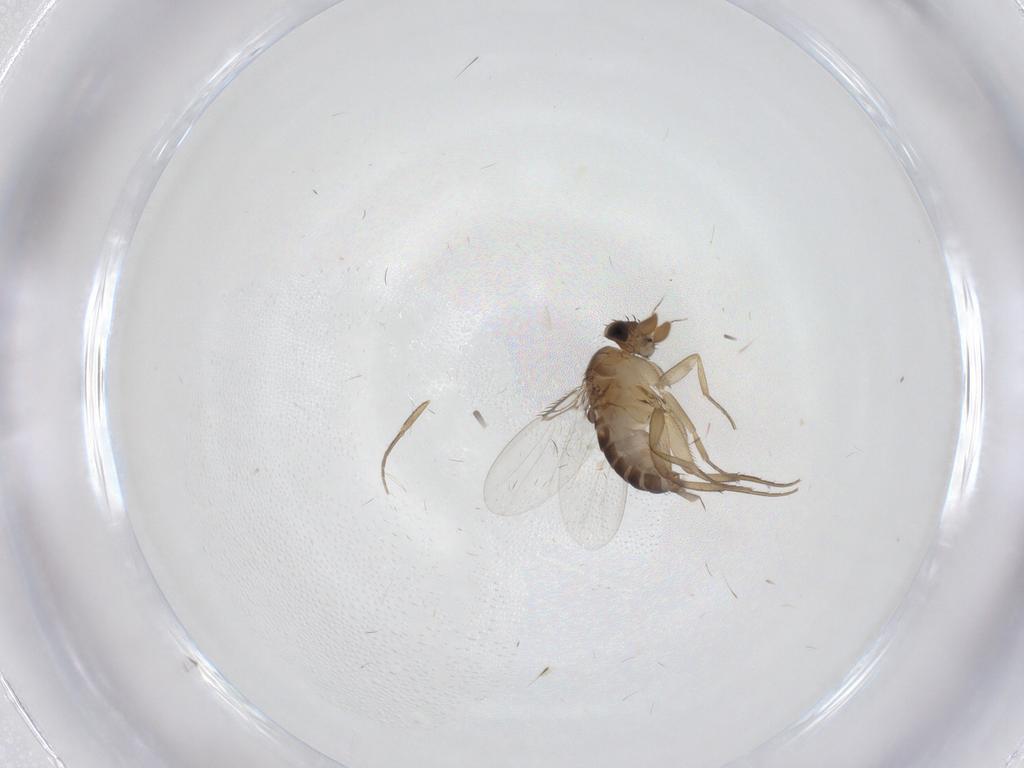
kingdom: Animalia
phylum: Arthropoda
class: Insecta
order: Diptera
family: Phoridae
